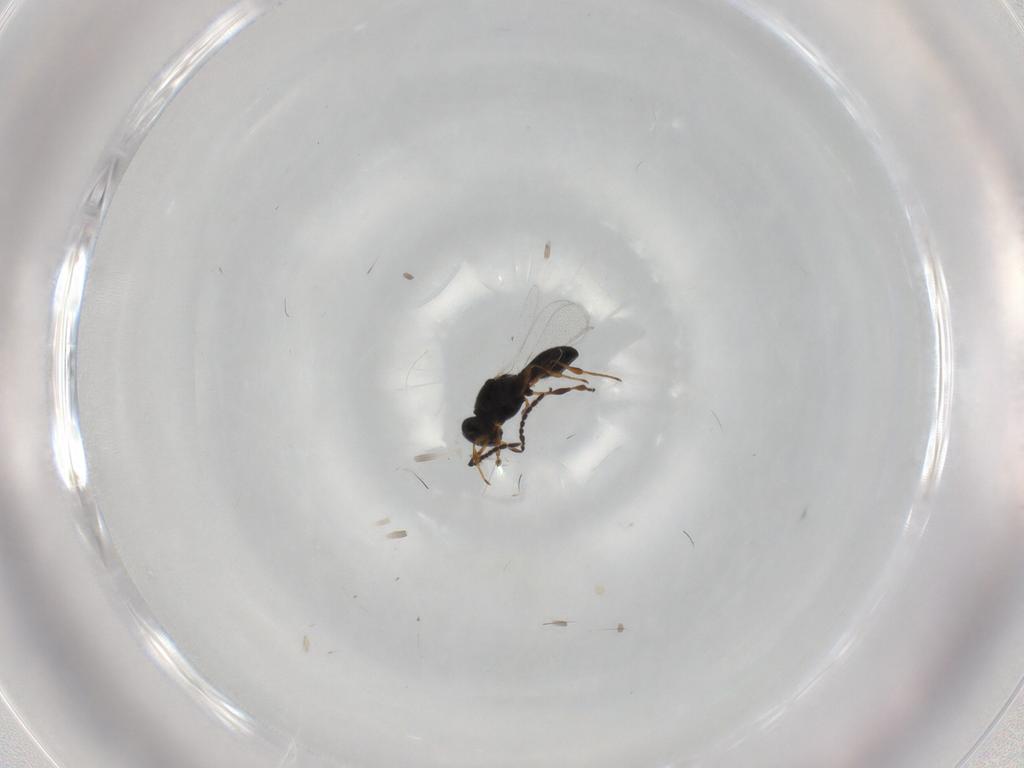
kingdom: Animalia
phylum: Arthropoda
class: Insecta
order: Hymenoptera
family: Platygastridae
